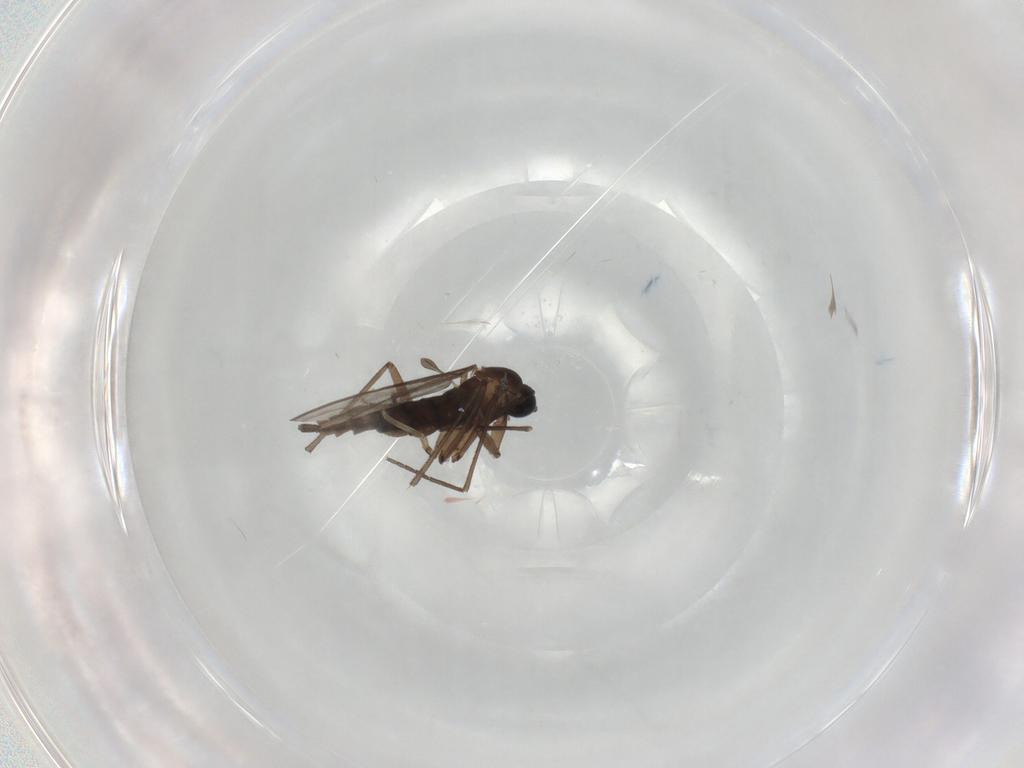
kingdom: Animalia
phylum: Arthropoda
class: Insecta
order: Diptera
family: Sciaridae
